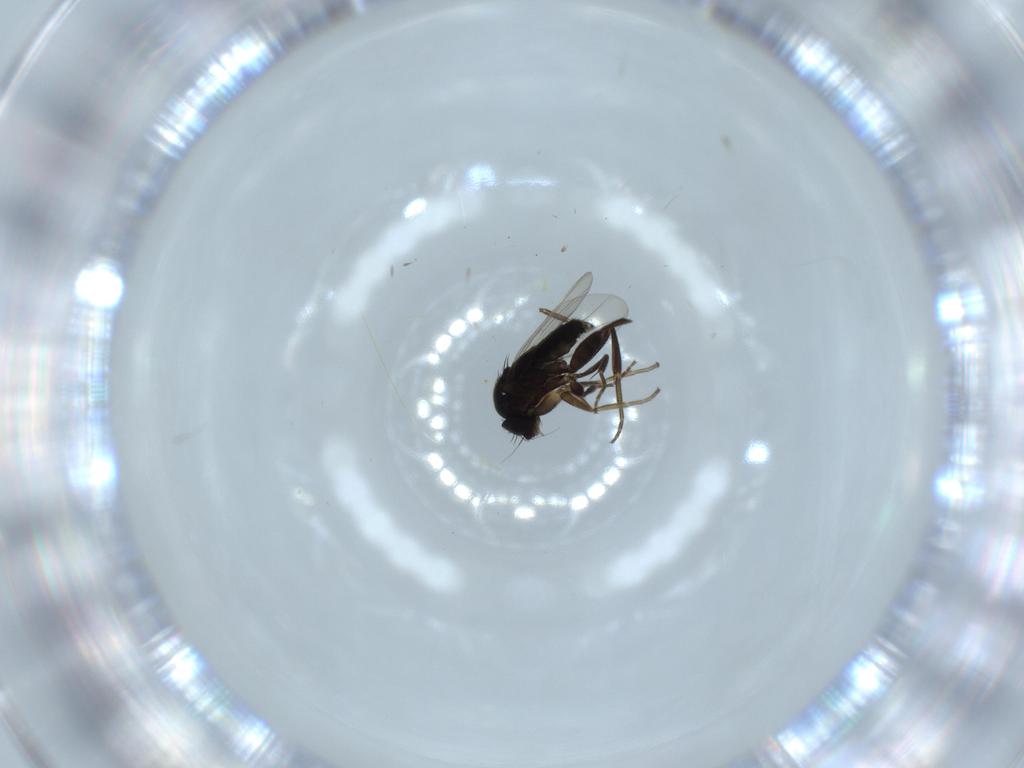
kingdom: Animalia
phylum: Arthropoda
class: Insecta
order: Diptera
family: Phoridae
